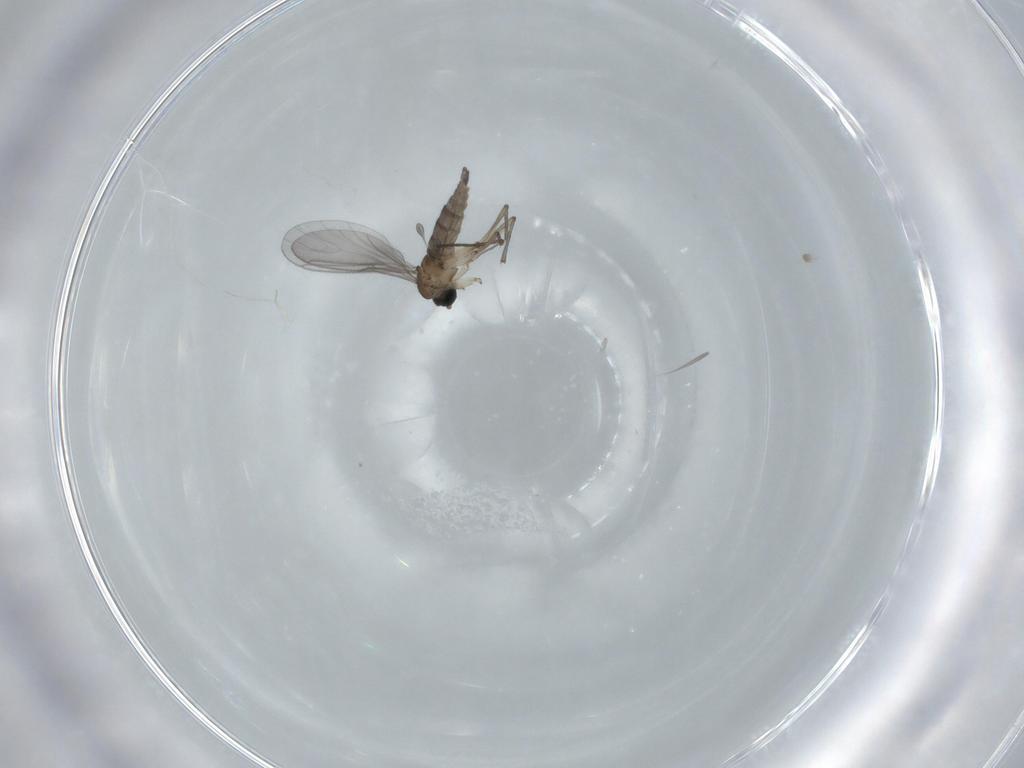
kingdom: Animalia
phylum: Arthropoda
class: Insecta
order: Diptera
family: Sciaridae
